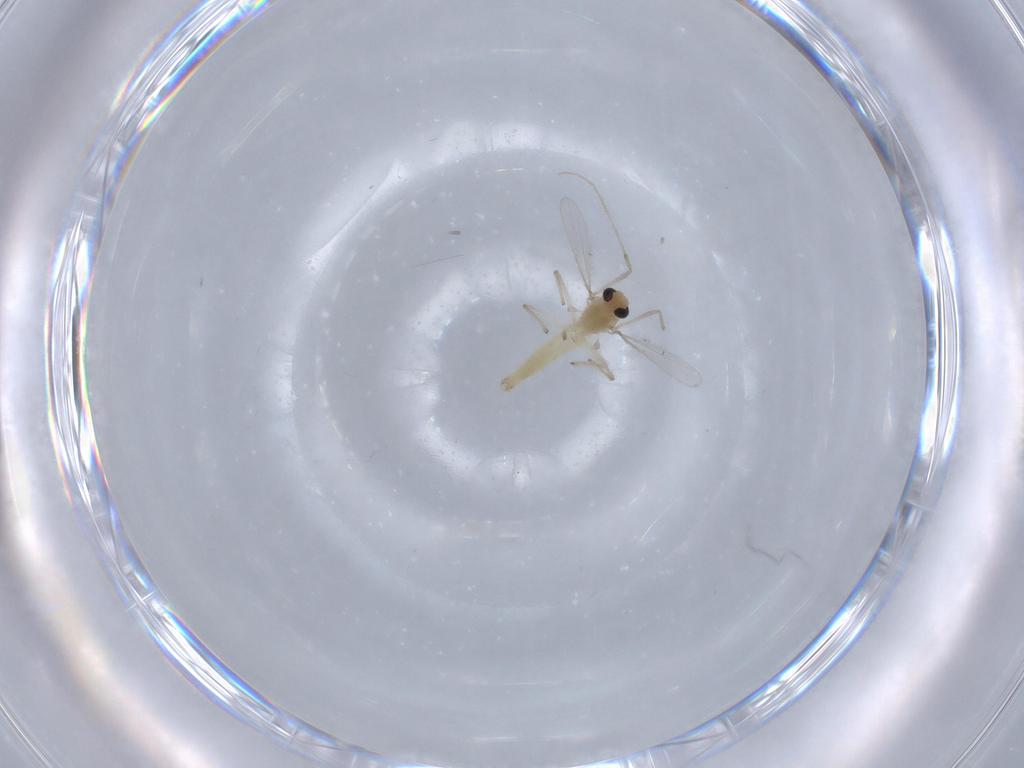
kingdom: Animalia
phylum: Arthropoda
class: Insecta
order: Diptera
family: Chironomidae
